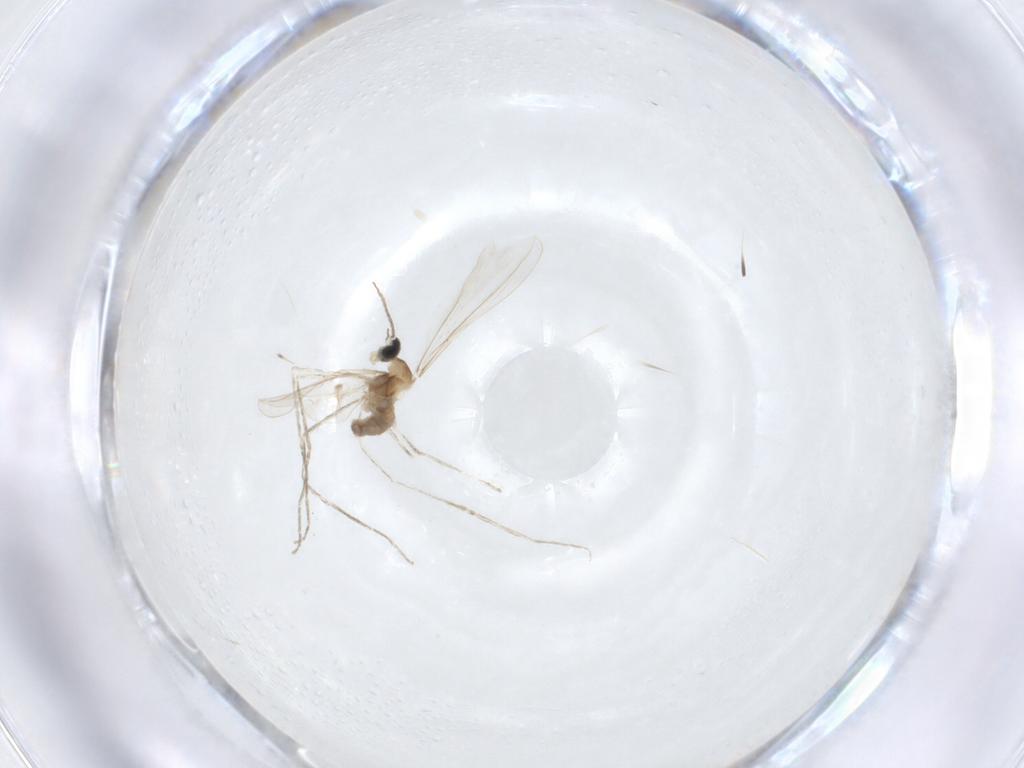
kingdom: Animalia
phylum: Arthropoda
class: Insecta
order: Diptera
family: Cecidomyiidae
